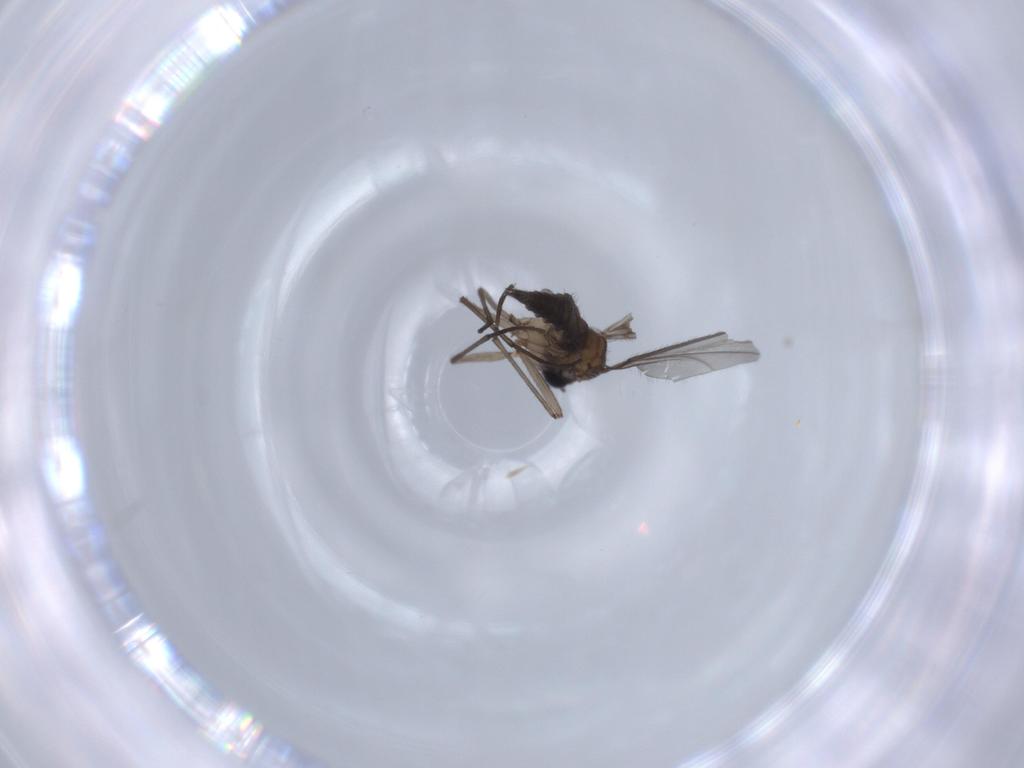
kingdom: Animalia
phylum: Arthropoda
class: Insecta
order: Diptera
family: Sciaridae
